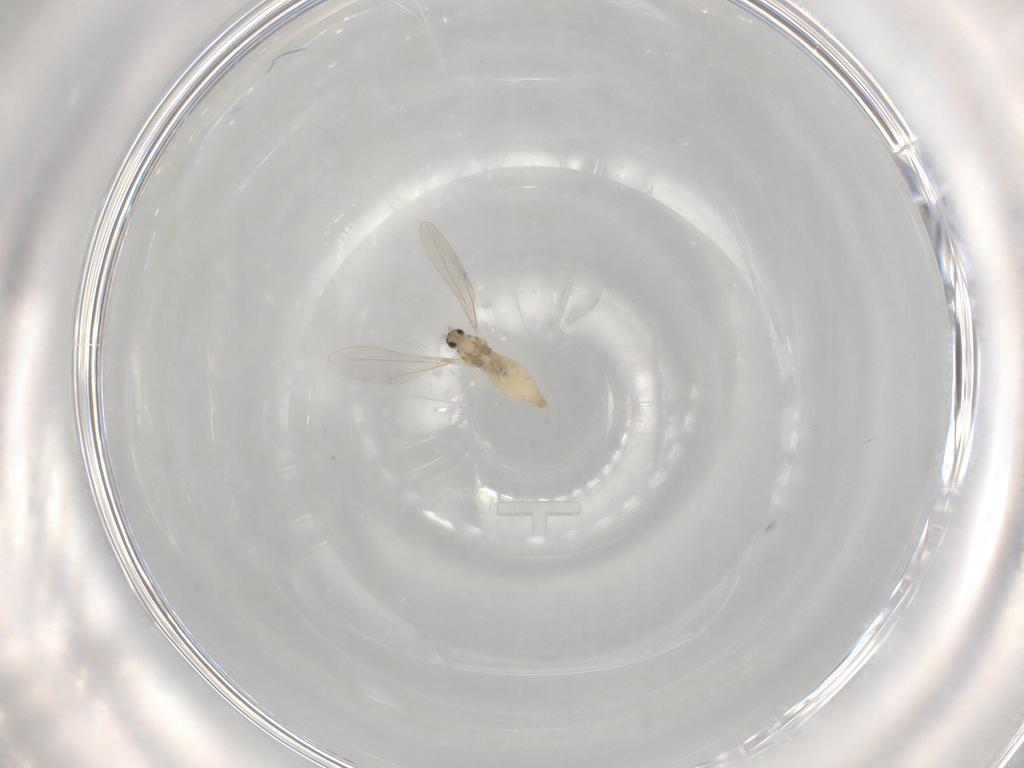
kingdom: Animalia
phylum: Arthropoda
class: Insecta
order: Diptera
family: Cecidomyiidae
